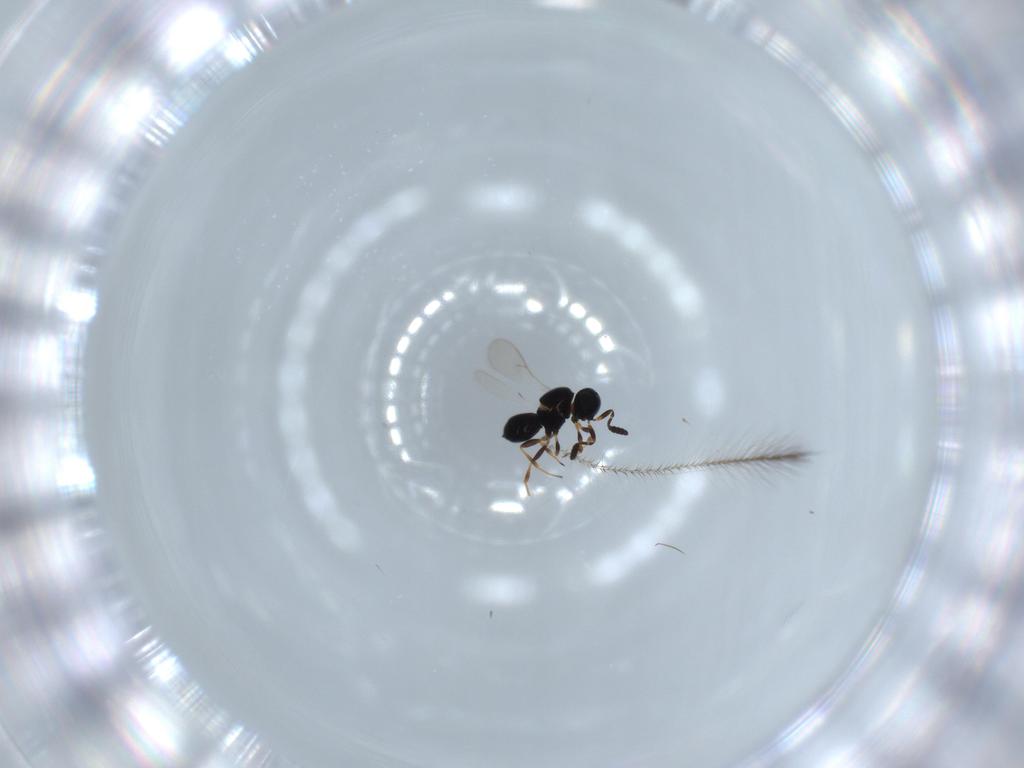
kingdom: Animalia
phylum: Arthropoda
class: Insecta
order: Hymenoptera
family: Scelionidae
